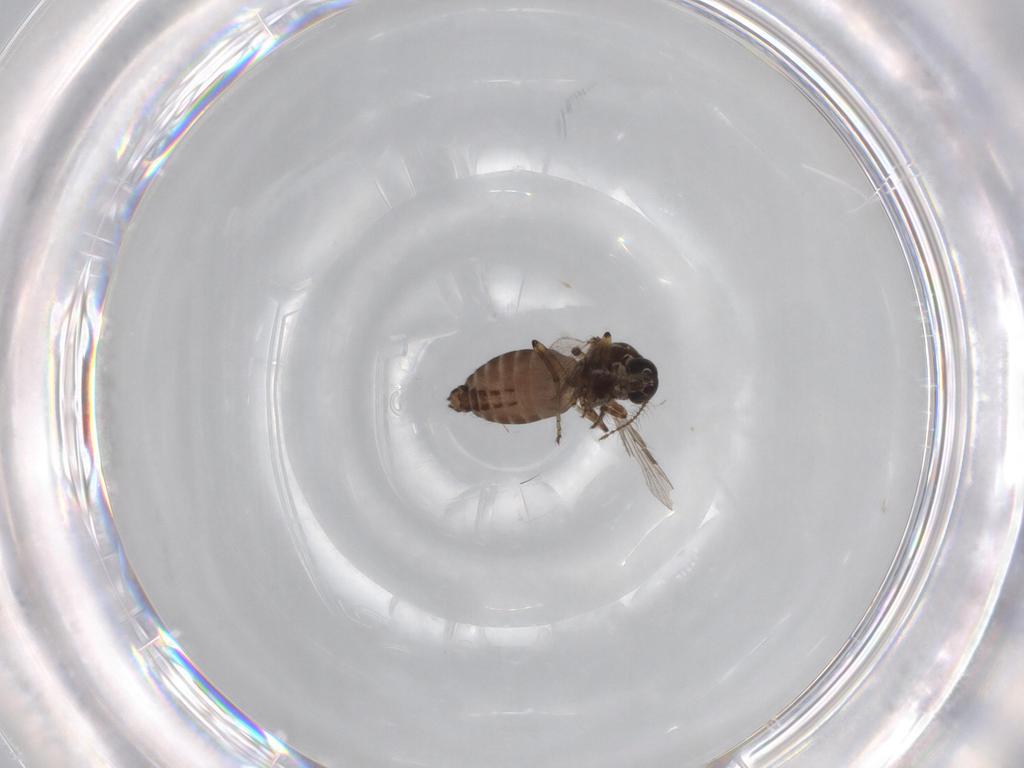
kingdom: Animalia
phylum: Arthropoda
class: Insecta
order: Diptera
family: Cecidomyiidae
